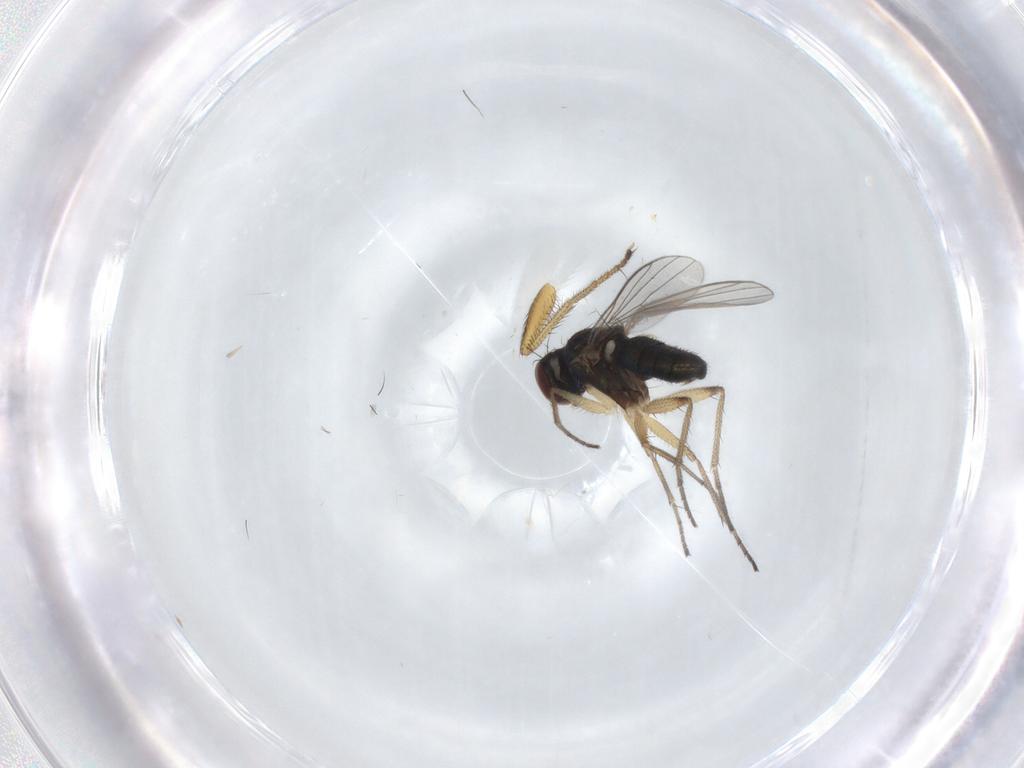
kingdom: Animalia
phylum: Arthropoda
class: Insecta
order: Diptera
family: Dolichopodidae
